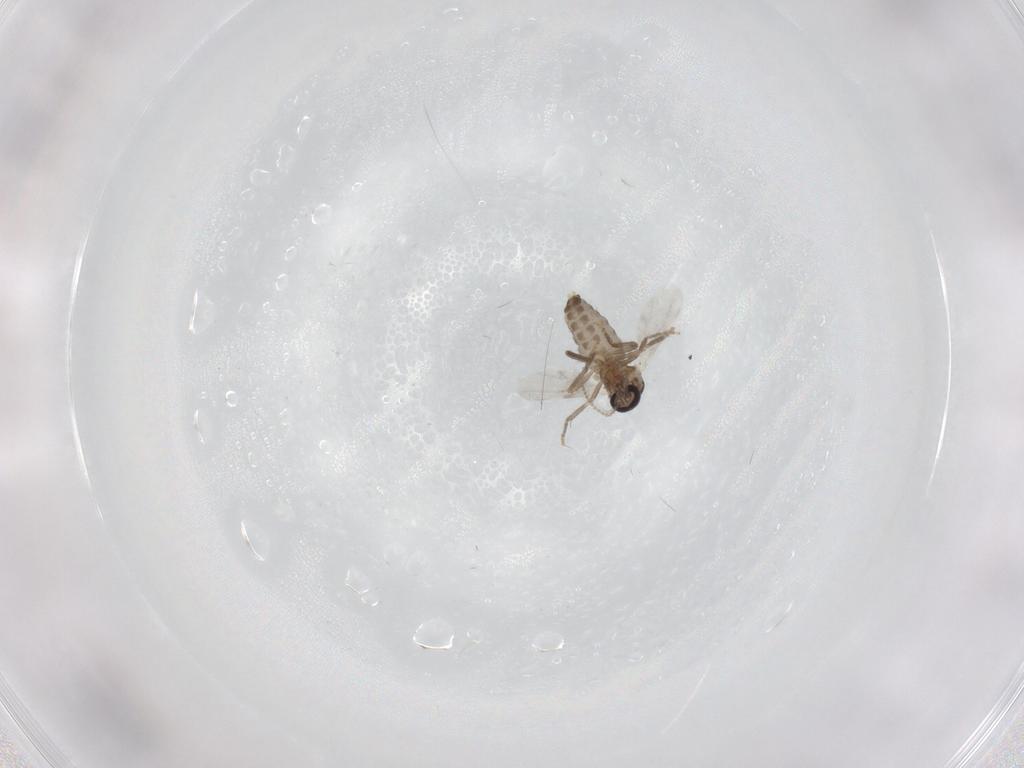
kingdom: Animalia
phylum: Arthropoda
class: Insecta
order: Diptera
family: Ceratopogonidae
